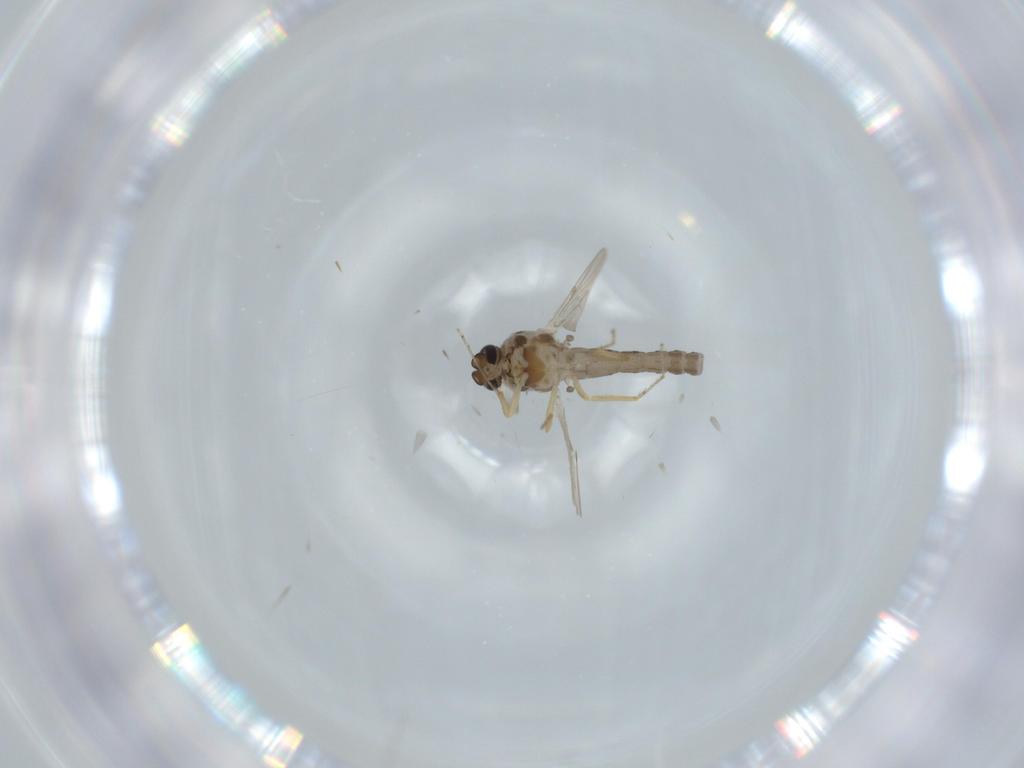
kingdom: Animalia
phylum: Arthropoda
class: Insecta
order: Diptera
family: Ceratopogonidae
